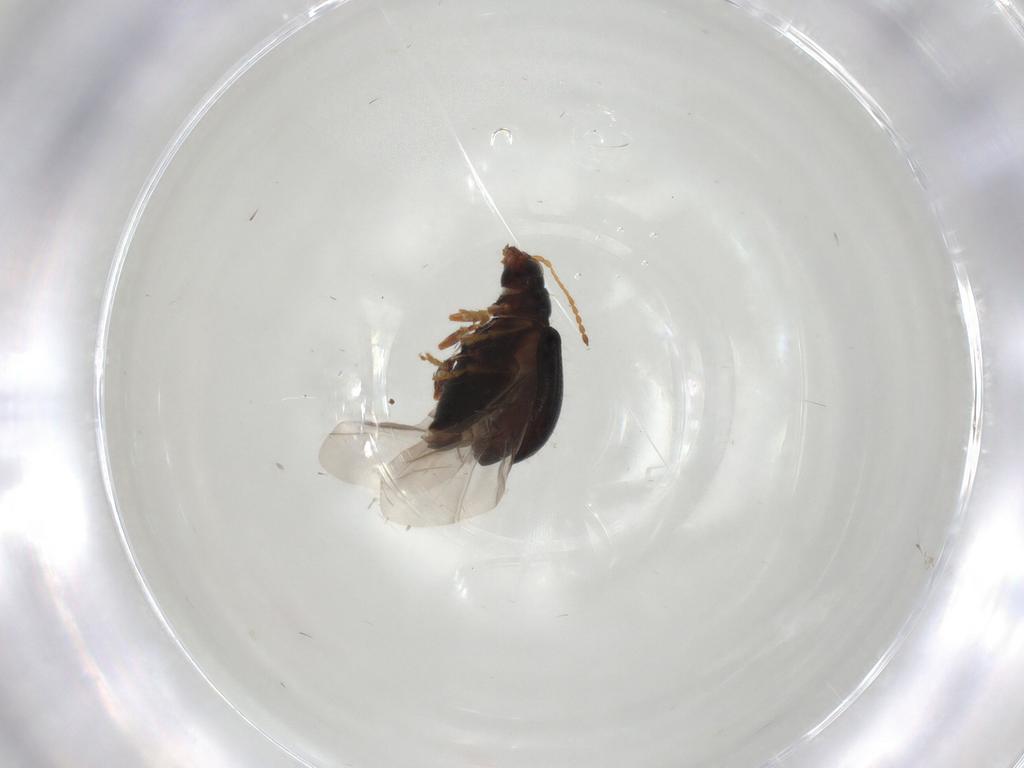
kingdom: Animalia
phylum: Arthropoda
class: Insecta
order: Coleoptera
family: Chrysomelidae
